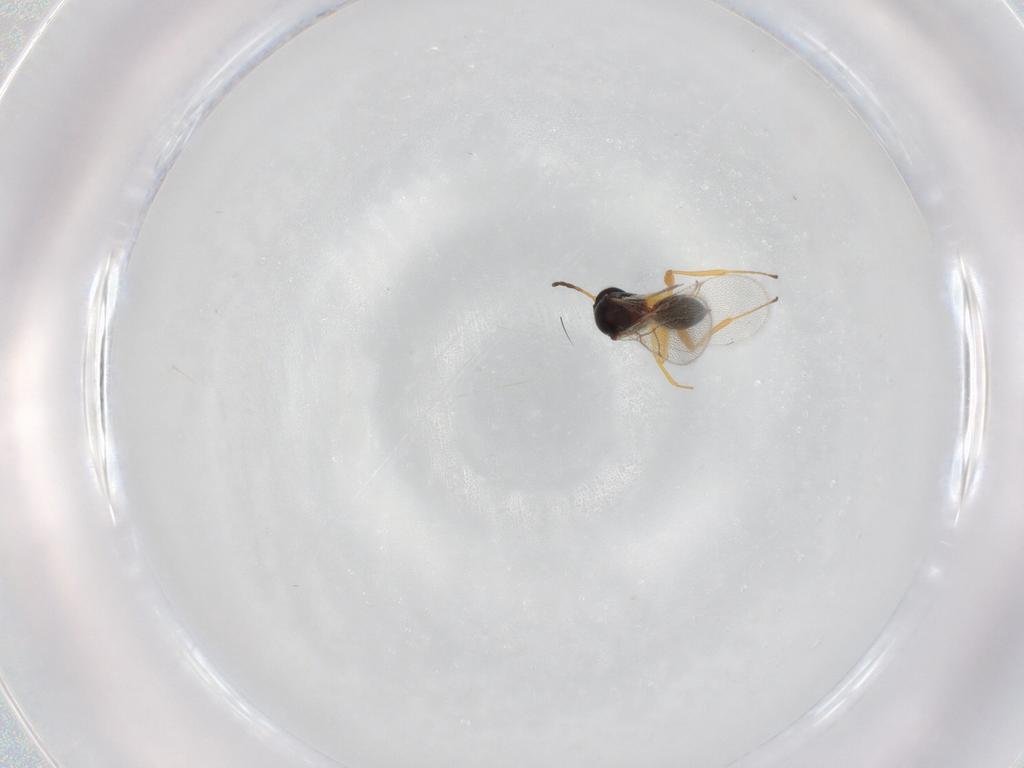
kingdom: Animalia
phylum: Arthropoda
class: Insecta
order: Hymenoptera
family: Figitidae
